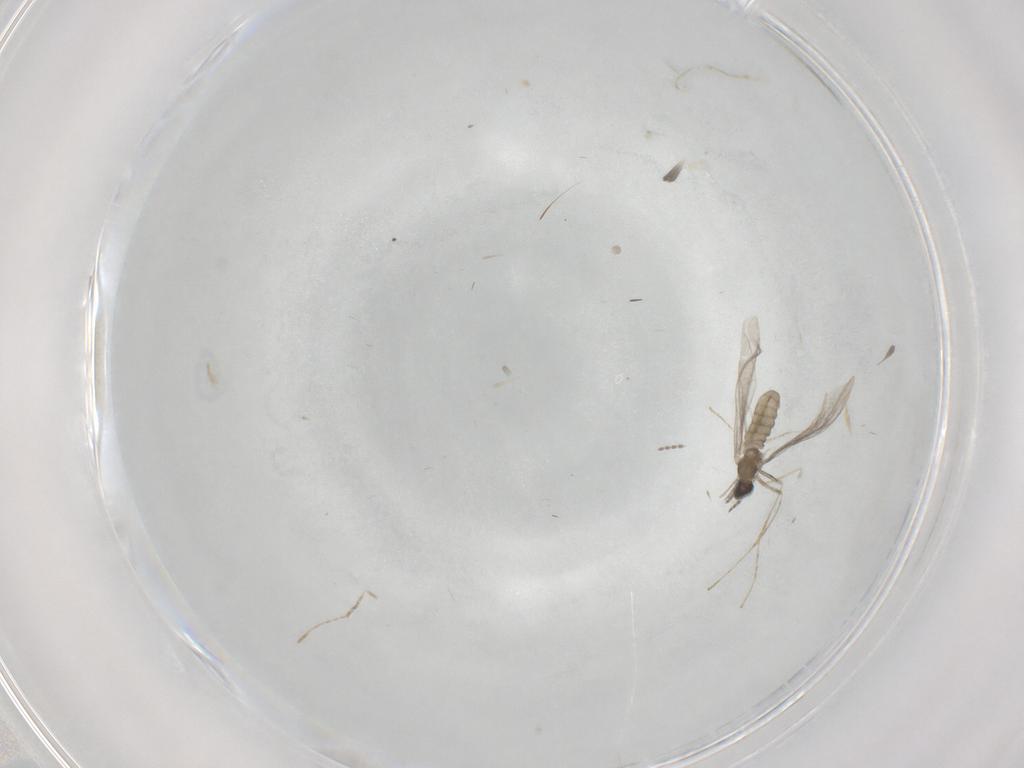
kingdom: Animalia
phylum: Arthropoda
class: Insecta
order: Diptera
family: Cecidomyiidae
